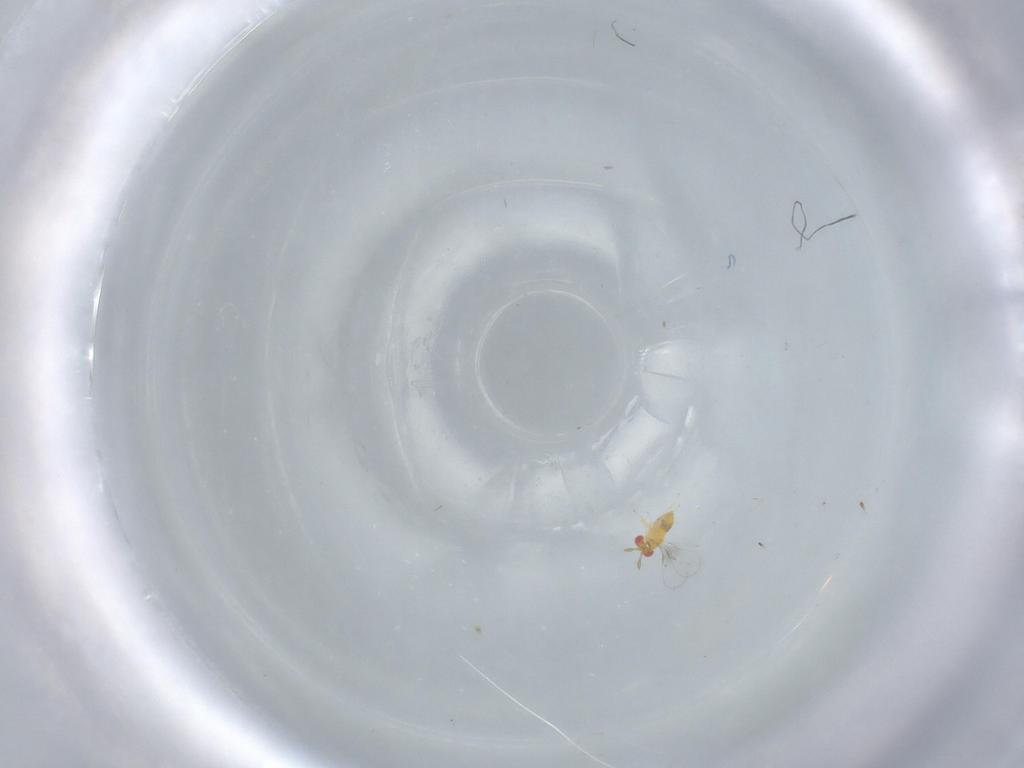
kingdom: Animalia
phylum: Arthropoda
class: Insecta
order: Hymenoptera
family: Trichogrammatidae
